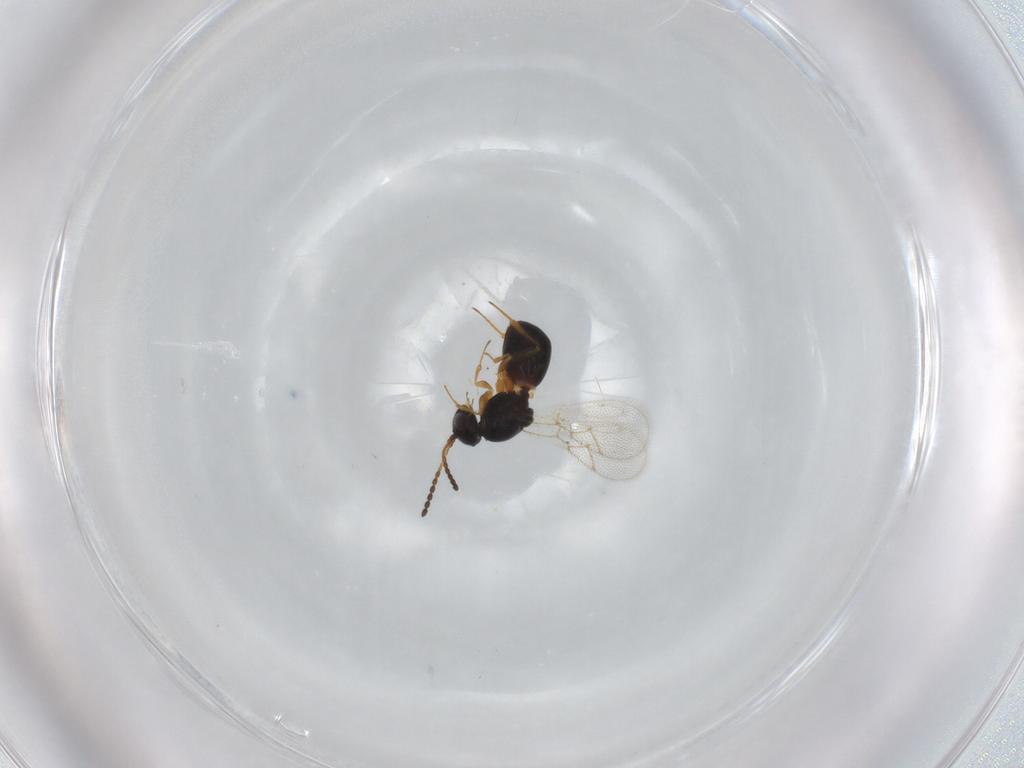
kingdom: Animalia
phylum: Arthropoda
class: Insecta
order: Hymenoptera
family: Figitidae
